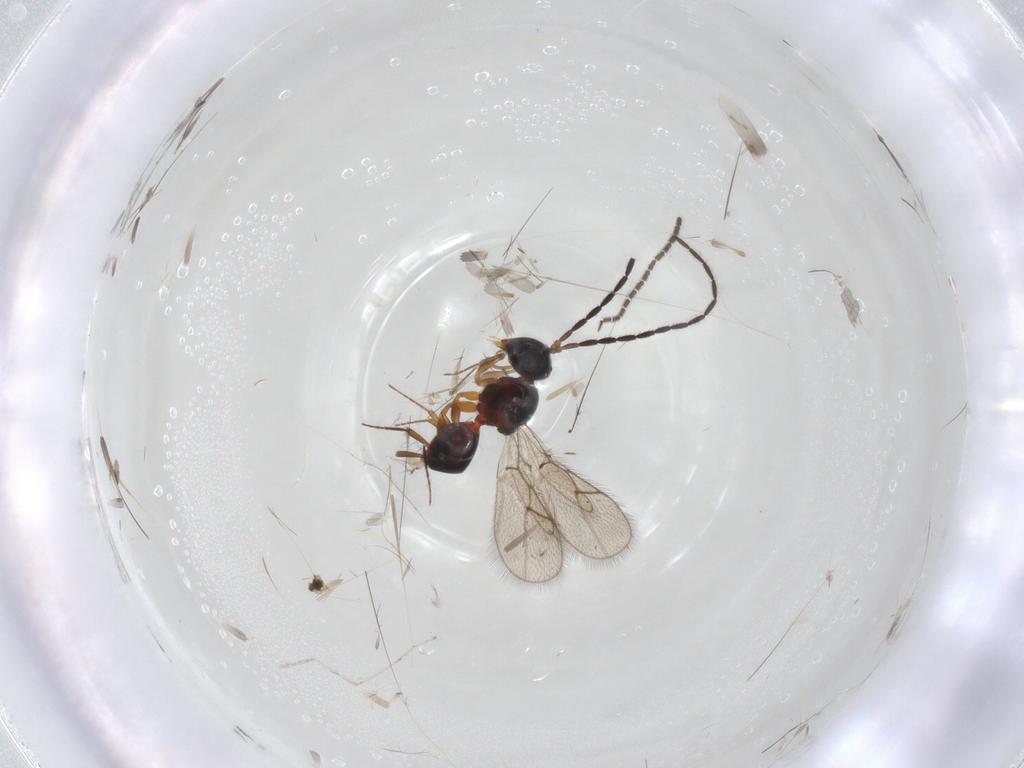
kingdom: Animalia
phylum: Arthropoda
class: Insecta
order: Hymenoptera
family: Figitidae
